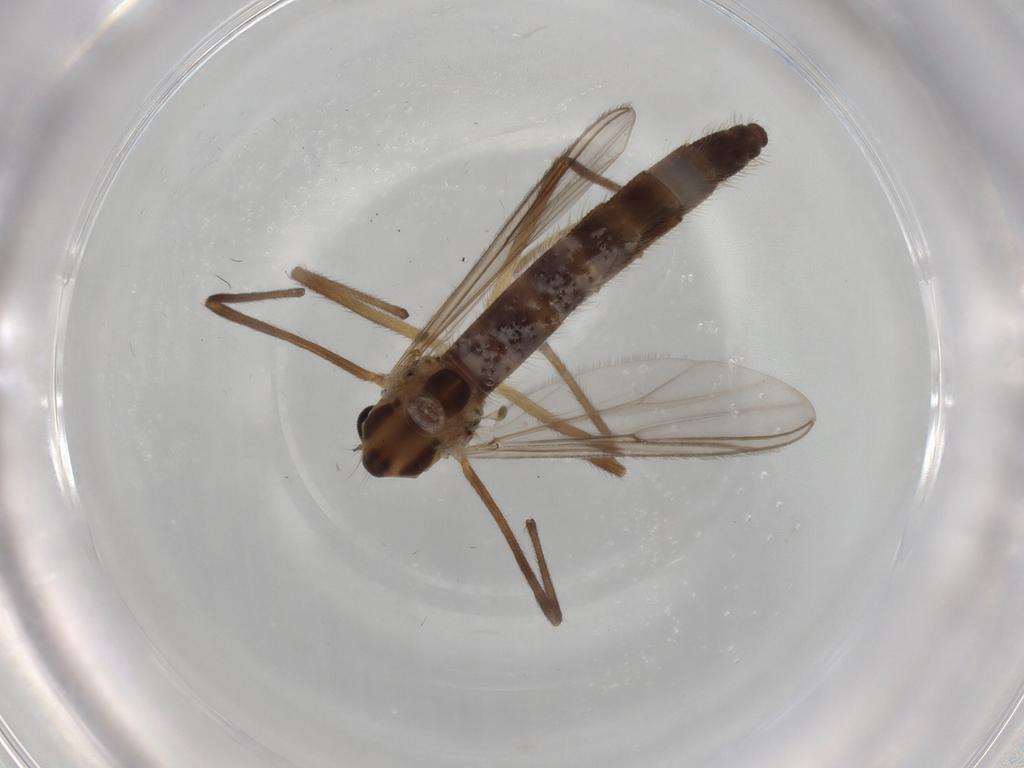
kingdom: Animalia
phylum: Arthropoda
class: Insecta
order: Diptera
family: Chironomidae
